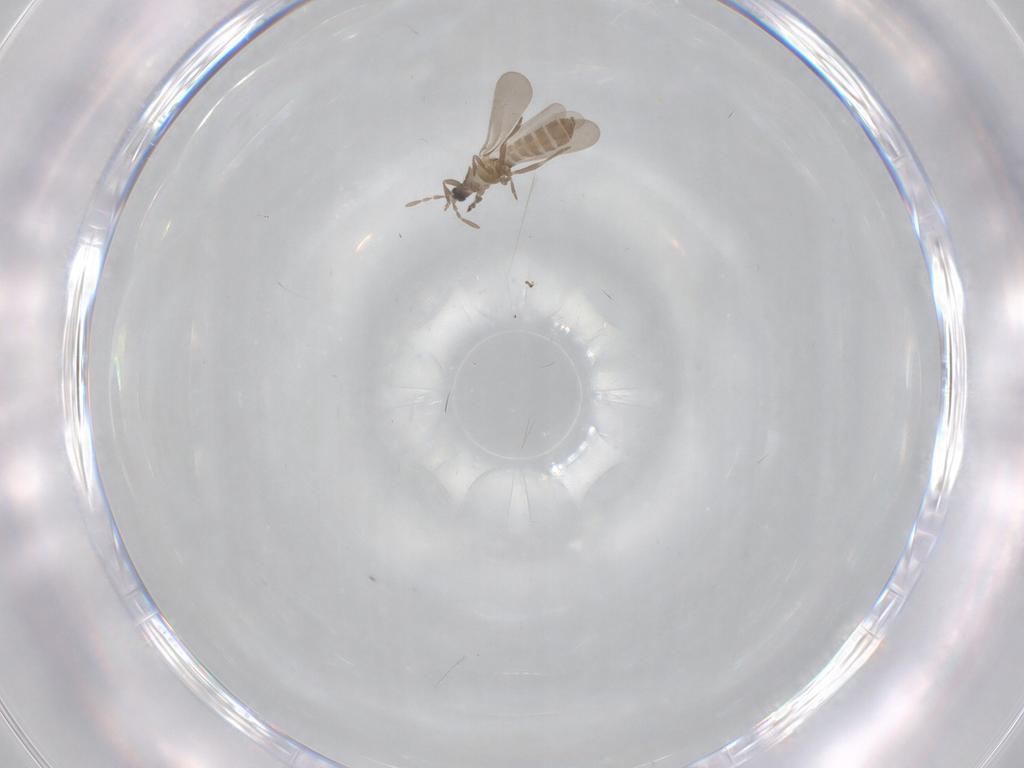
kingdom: Animalia
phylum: Arthropoda
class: Insecta
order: Hemiptera
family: Enicocephalidae
